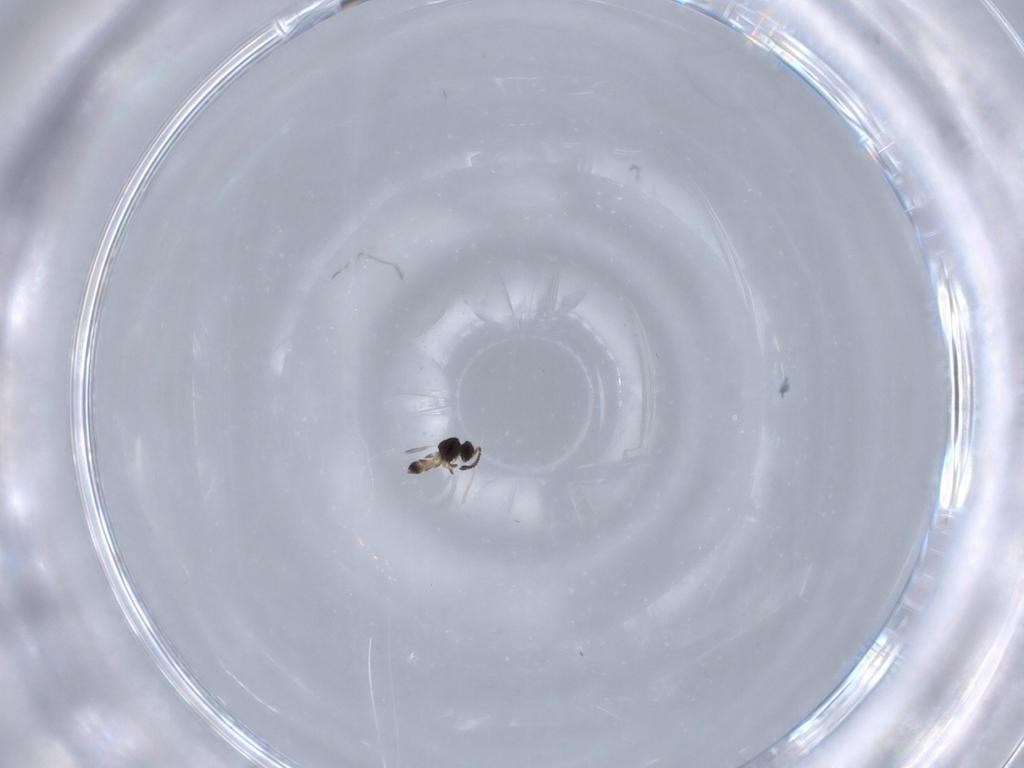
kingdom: Animalia
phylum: Arthropoda
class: Insecta
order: Hymenoptera
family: Ceraphronidae
